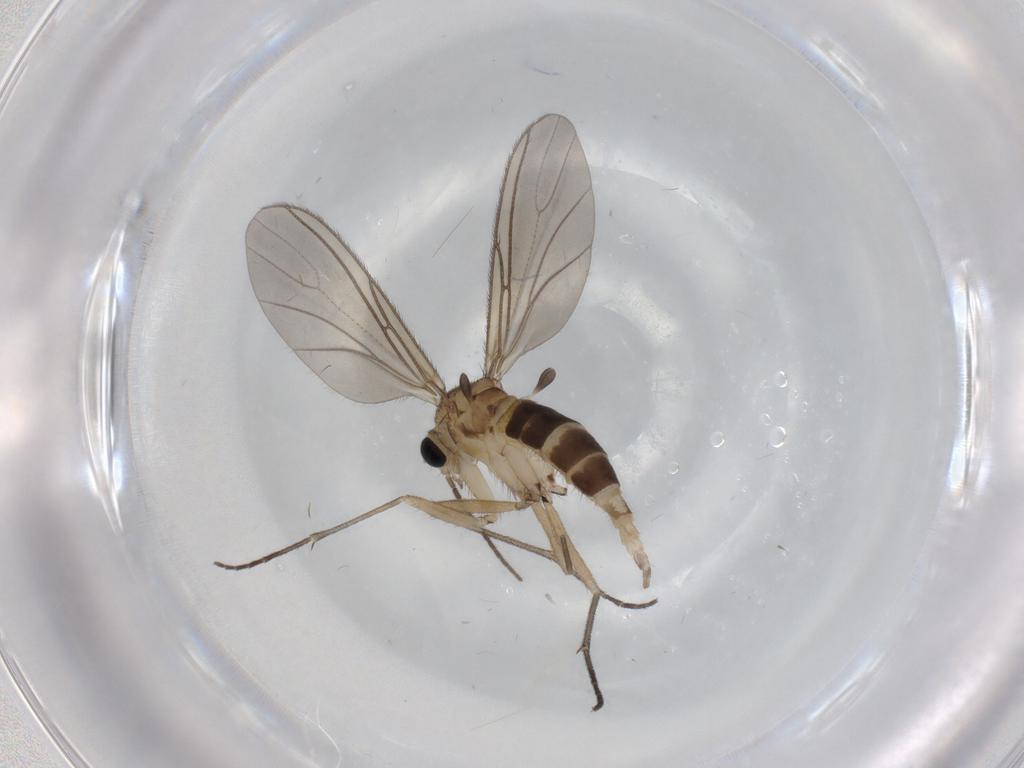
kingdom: Animalia
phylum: Arthropoda
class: Insecta
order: Diptera
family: Sciaridae
